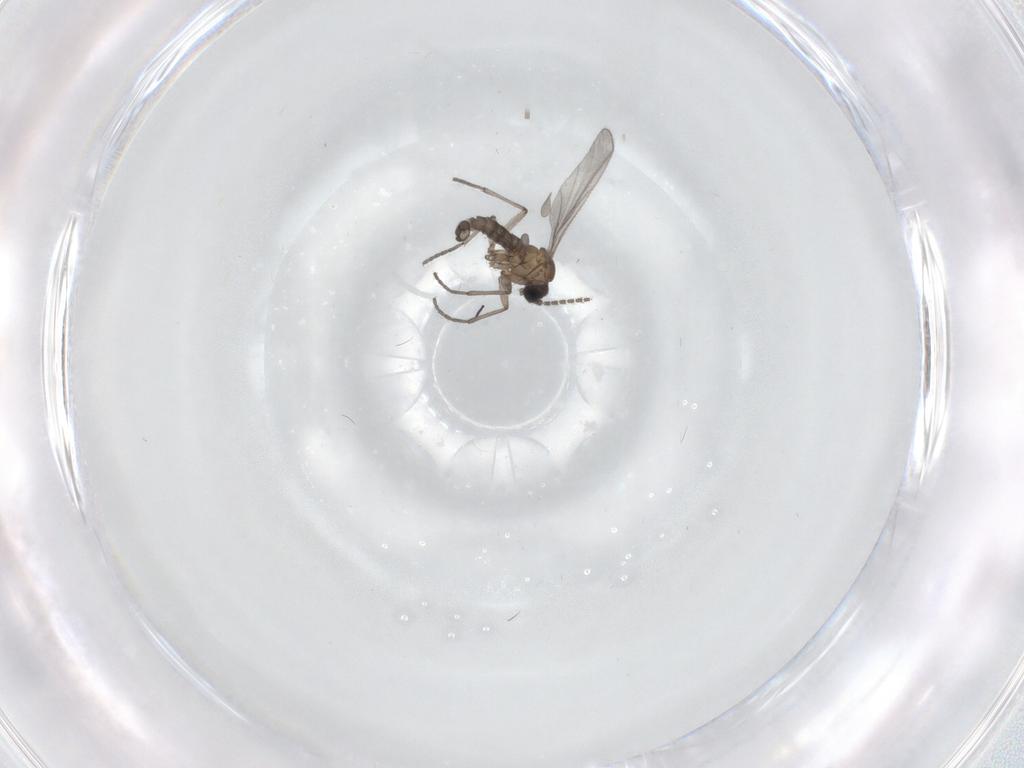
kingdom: Animalia
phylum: Arthropoda
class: Insecta
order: Diptera
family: Sciaridae
